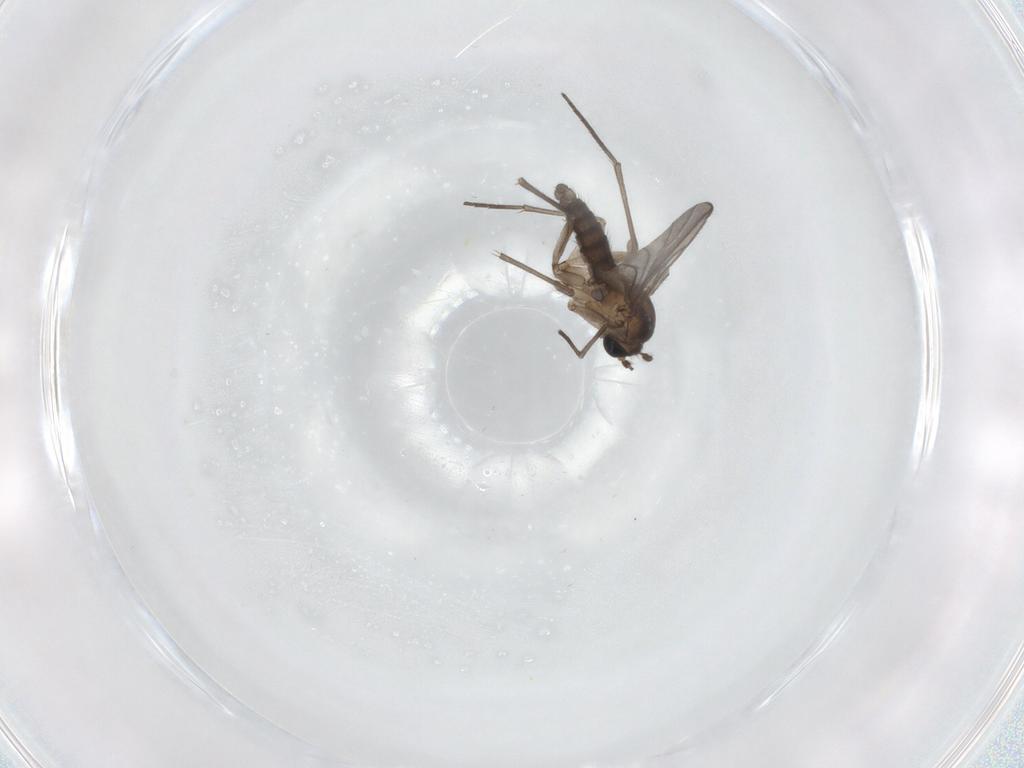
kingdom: Animalia
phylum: Arthropoda
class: Insecta
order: Diptera
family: Sciaridae
